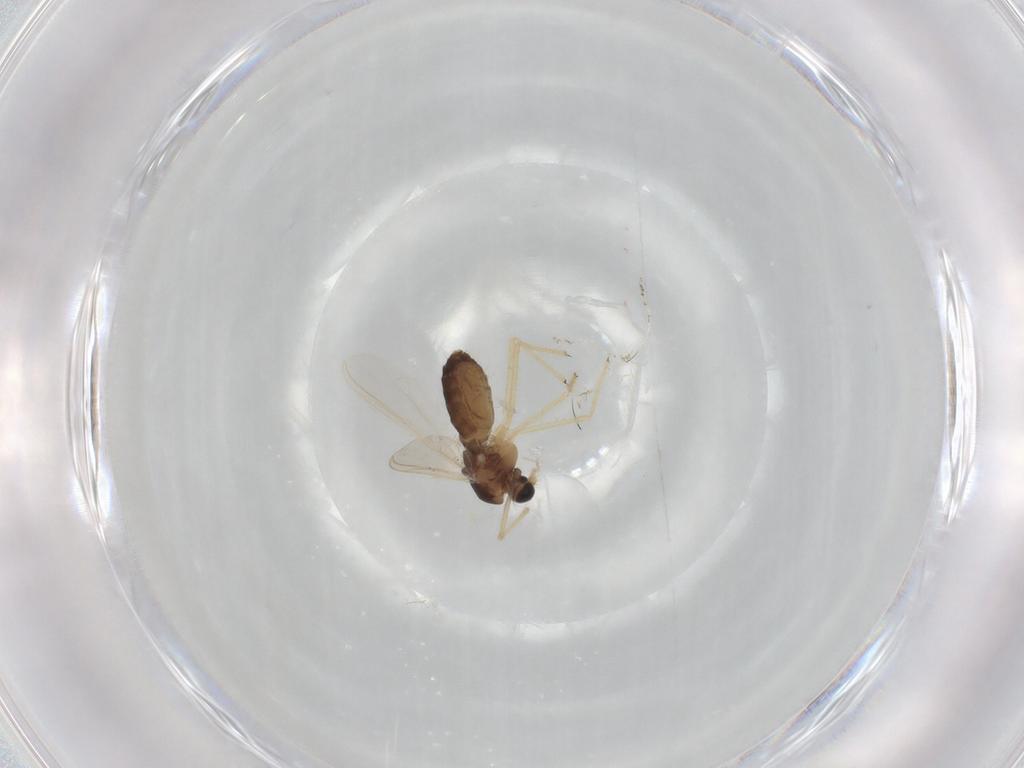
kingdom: Animalia
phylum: Arthropoda
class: Insecta
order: Diptera
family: Chironomidae
